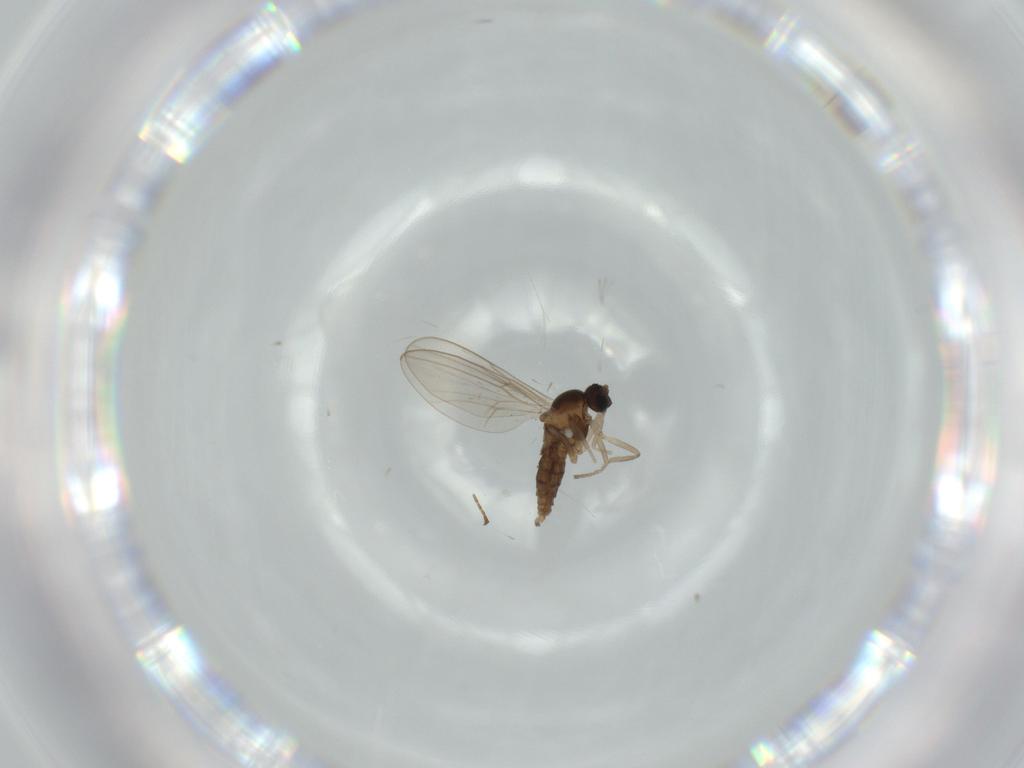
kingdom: Animalia
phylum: Arthropoda
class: Insecta
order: Diptera
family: Cecidomyiidae
